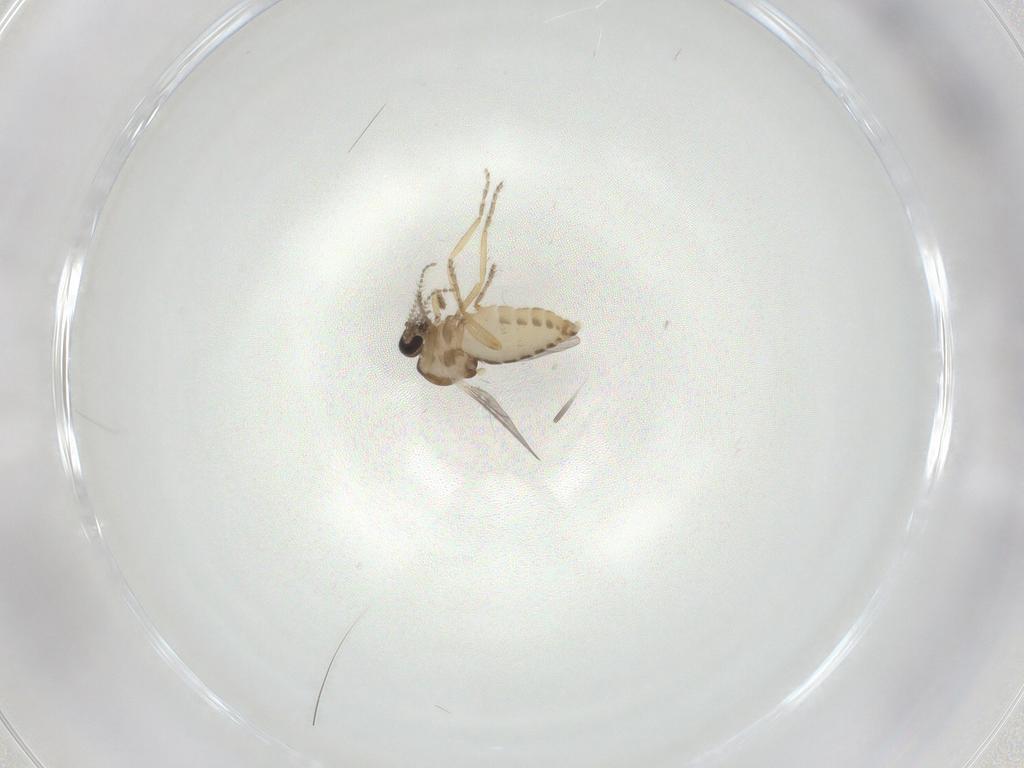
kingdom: Animalia
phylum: Arthropoda
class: Insecta
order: Diptera
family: Ceratopogonidae
